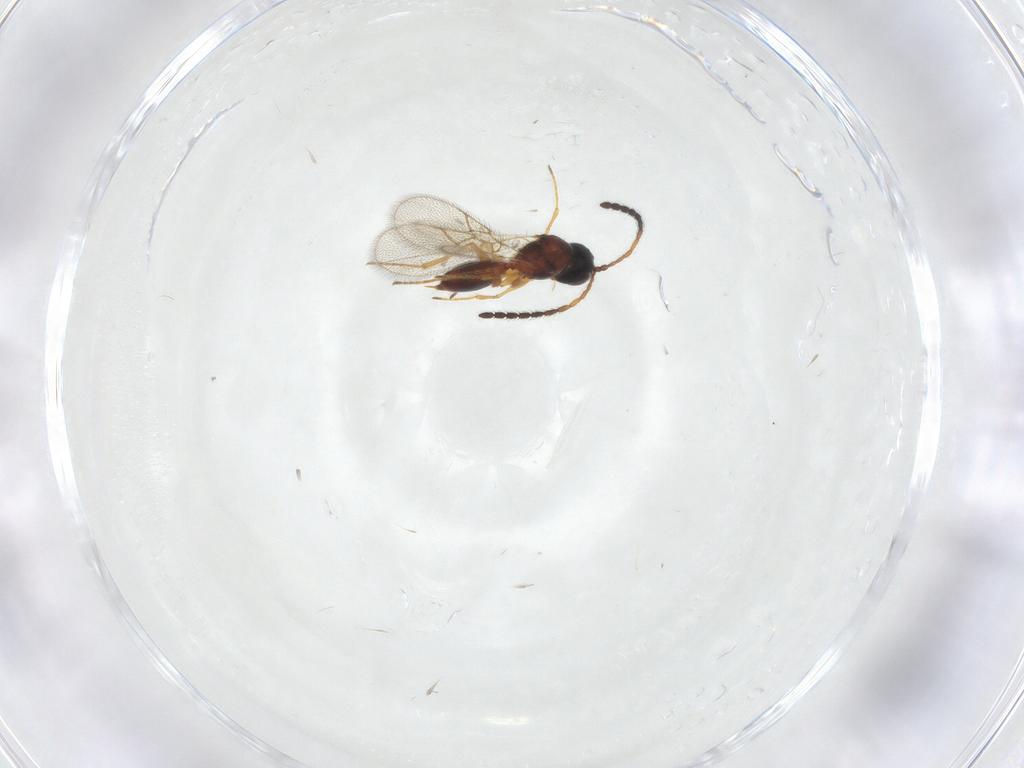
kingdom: Animalia
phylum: Arthropoda
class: Insecta
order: Hymenoptera
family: Figitidae
